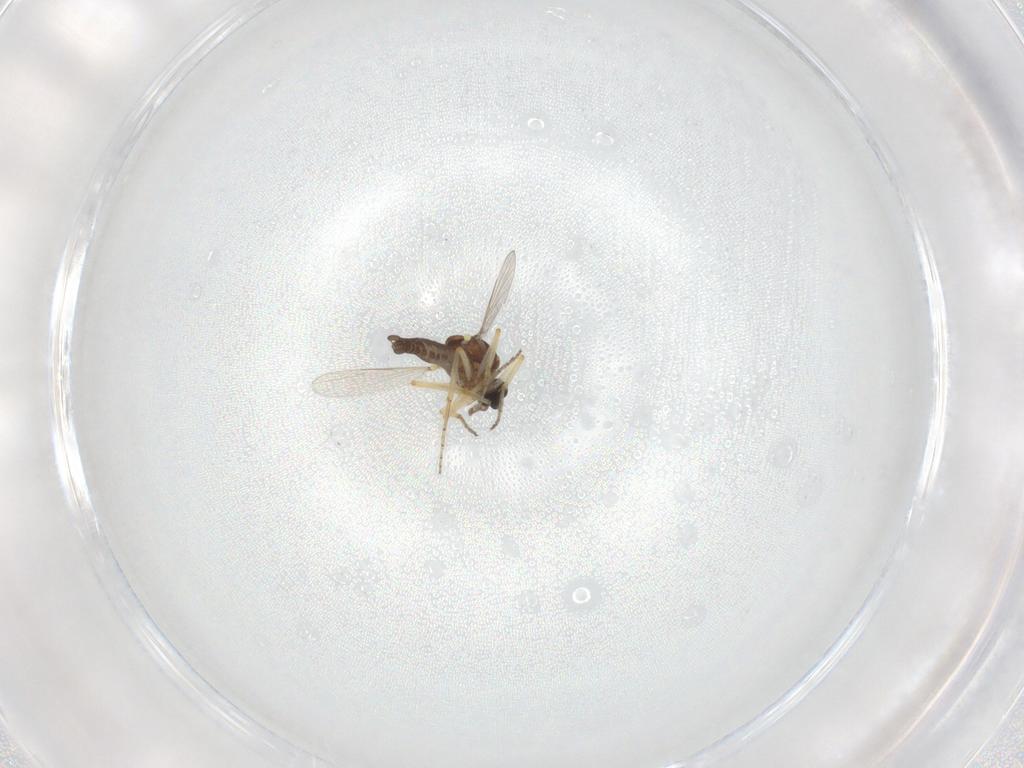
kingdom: Animalia
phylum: Arthropoda
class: Insecta
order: Diptera
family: Ceratopogonidae
